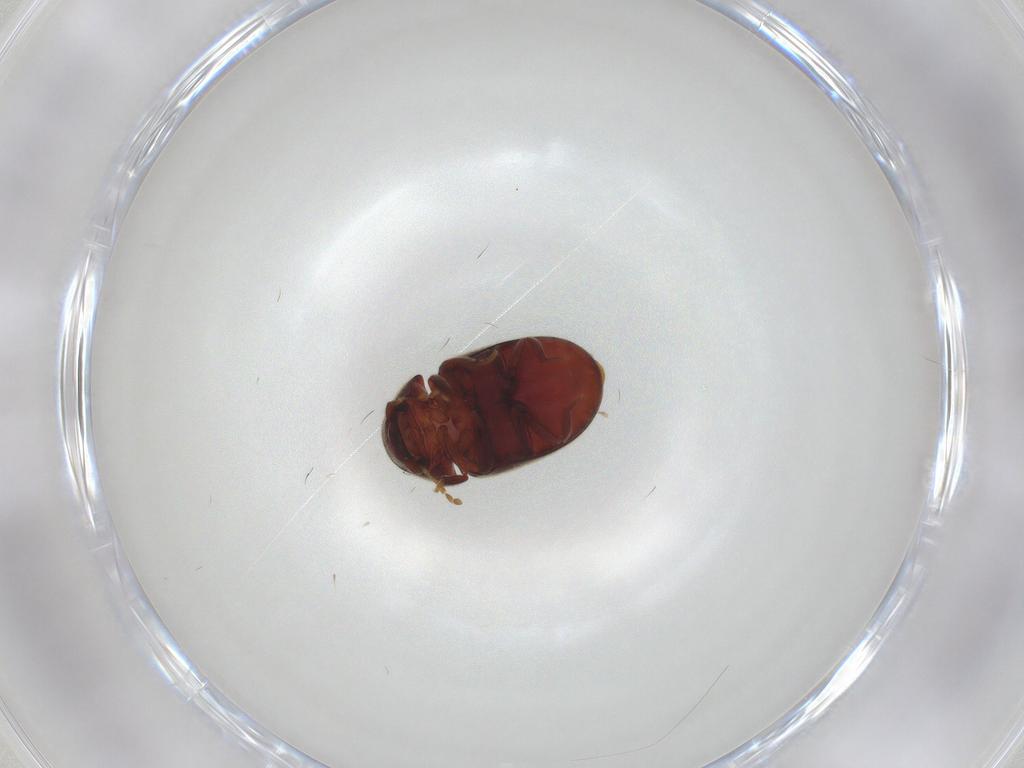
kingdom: Animalia
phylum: Arthropoda
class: Insecta
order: Coleoptera
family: Ptinidae
